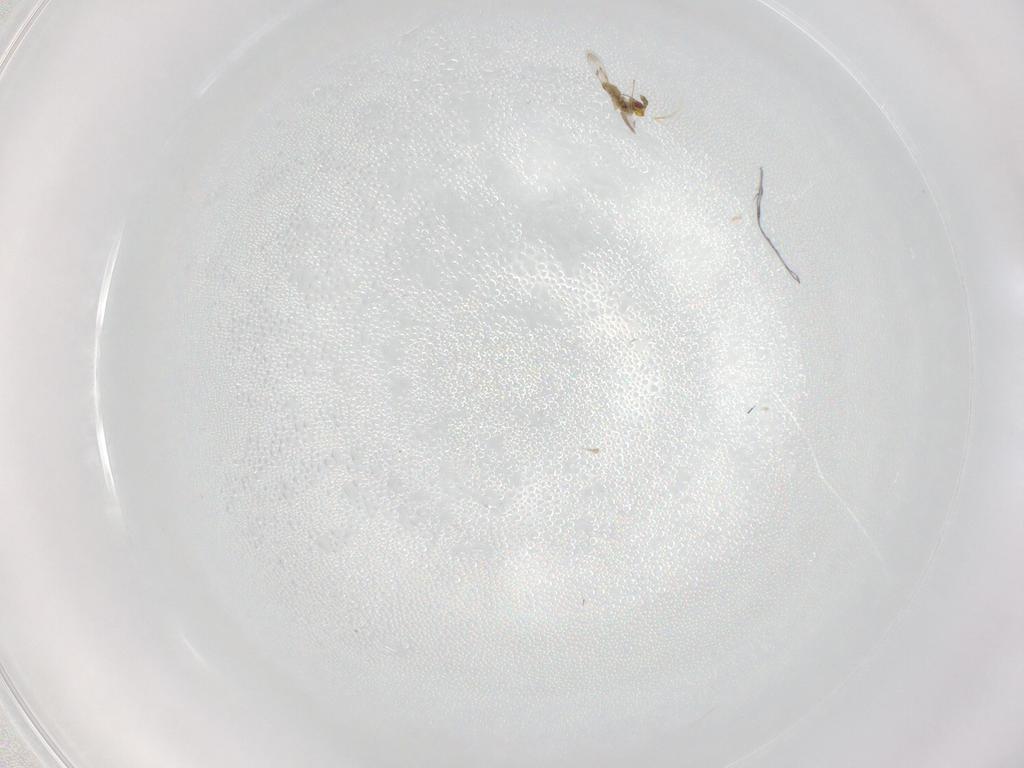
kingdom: Animalia
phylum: Arthropoda
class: Insecta
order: Hymenoptera
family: Eulophidae
